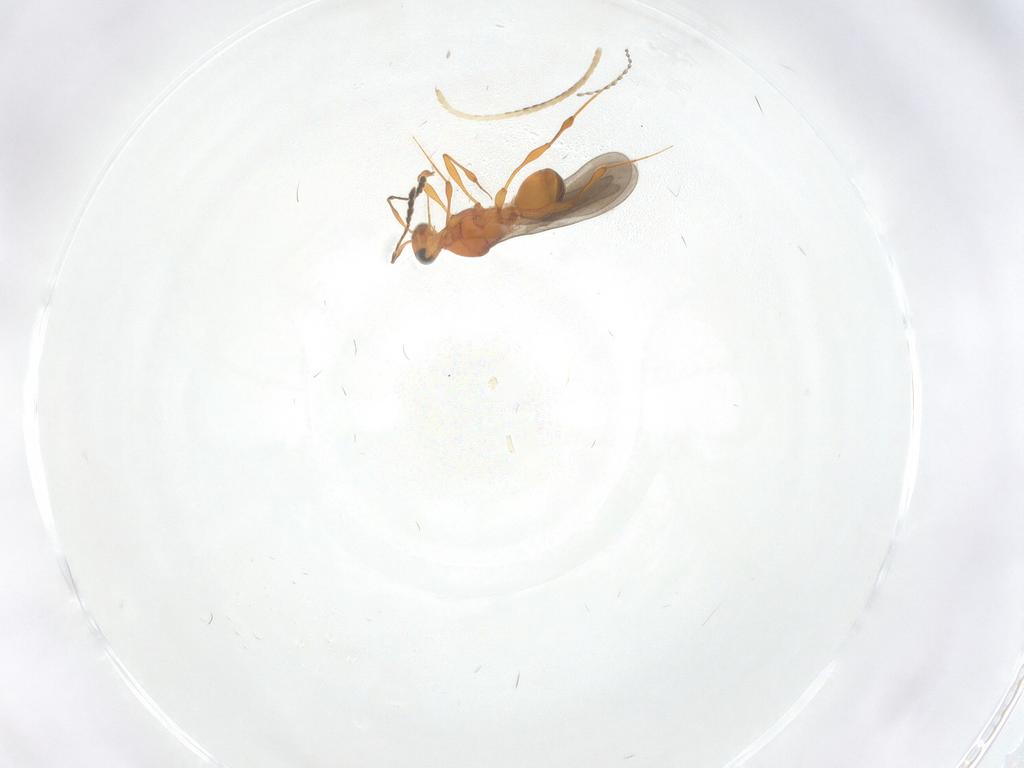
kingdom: Animalia
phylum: Arthropoda
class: Insecta
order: Hymenoptera
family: Platygastridae
